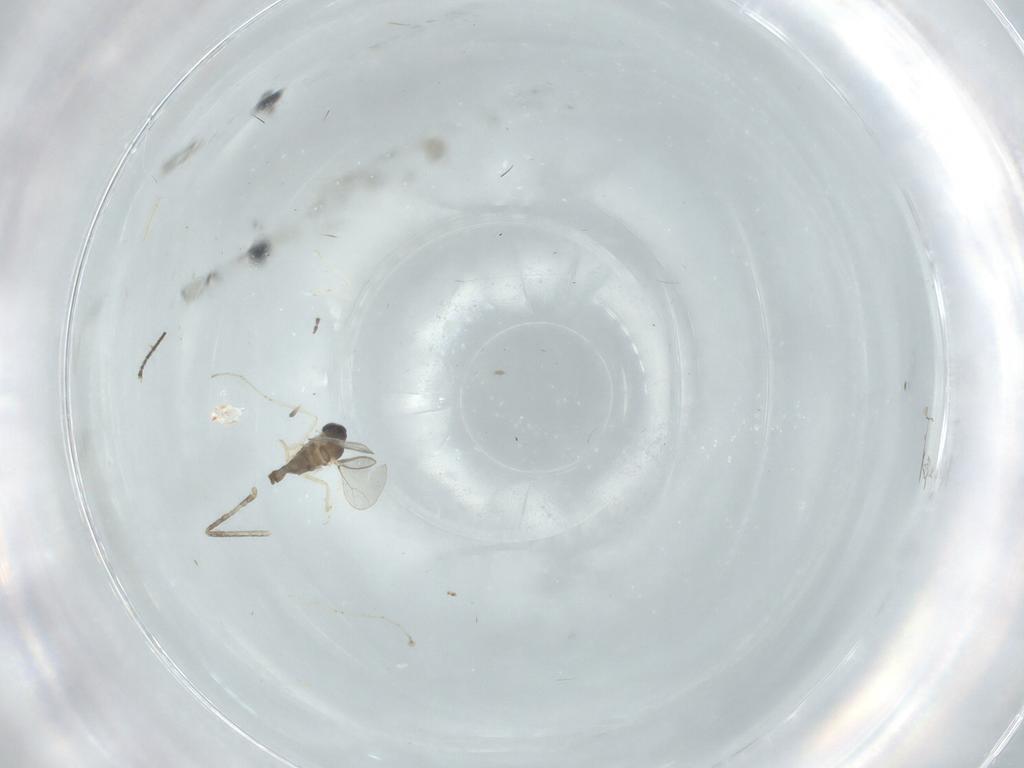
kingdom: Animalia
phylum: Arthropoda
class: Insecta
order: Diptera
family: Cecidomyiidae
